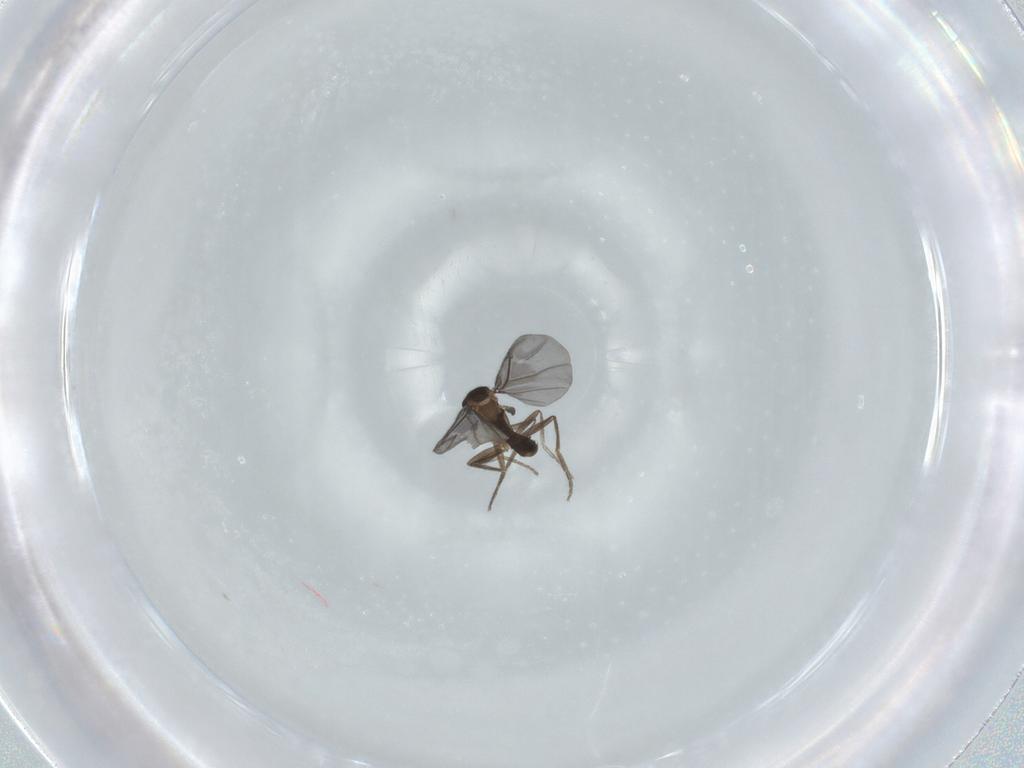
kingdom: Animalia
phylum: Arthropoda
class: Insecta
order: Diptera
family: Phoridae
